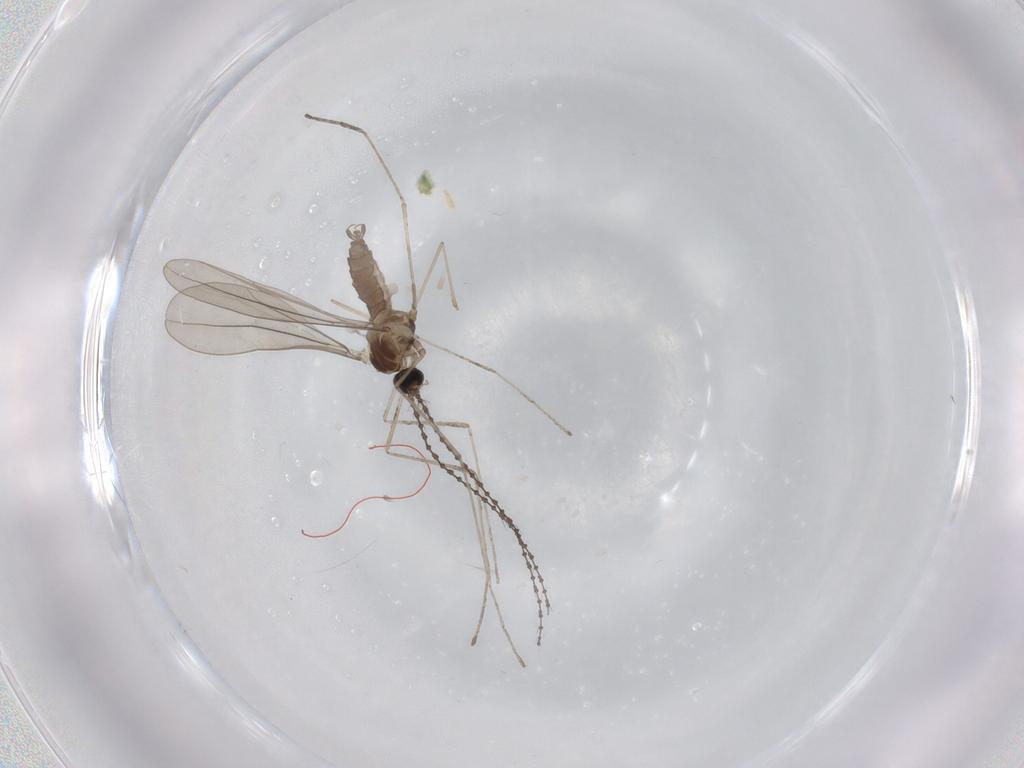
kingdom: Animalia
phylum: Arthropoda
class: Insecta
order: Diptera
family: Cecidomyiidae
